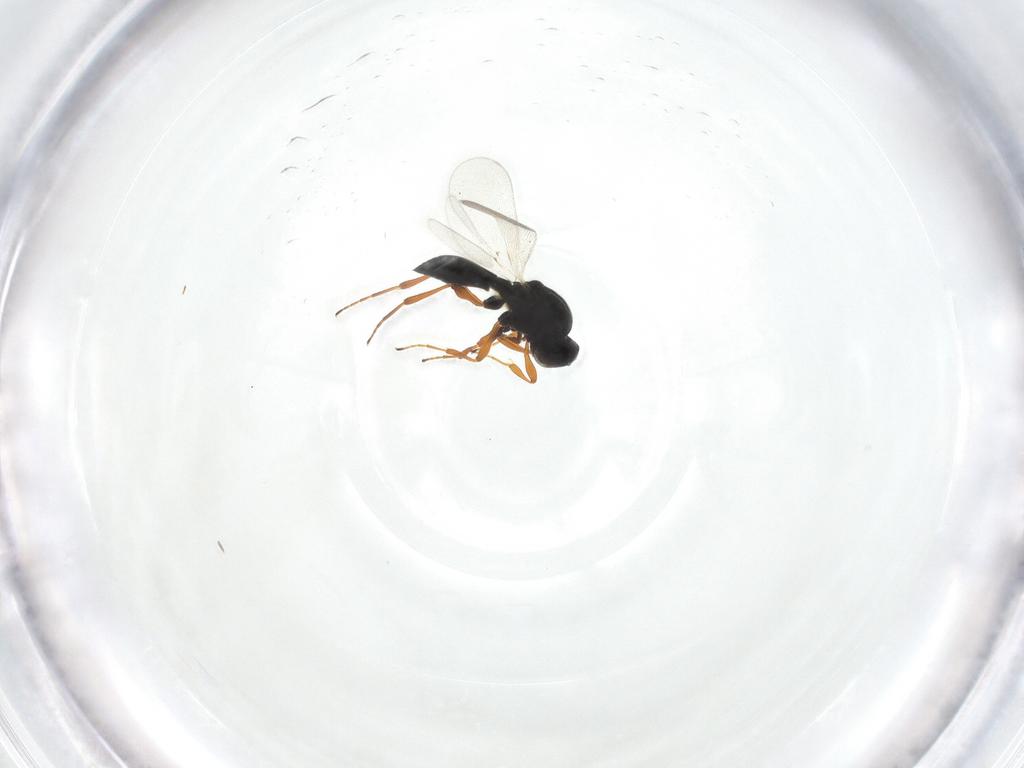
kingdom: Animalia
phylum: Arthropoda
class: Insecta
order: Hymenoptera
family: Platygastridae
